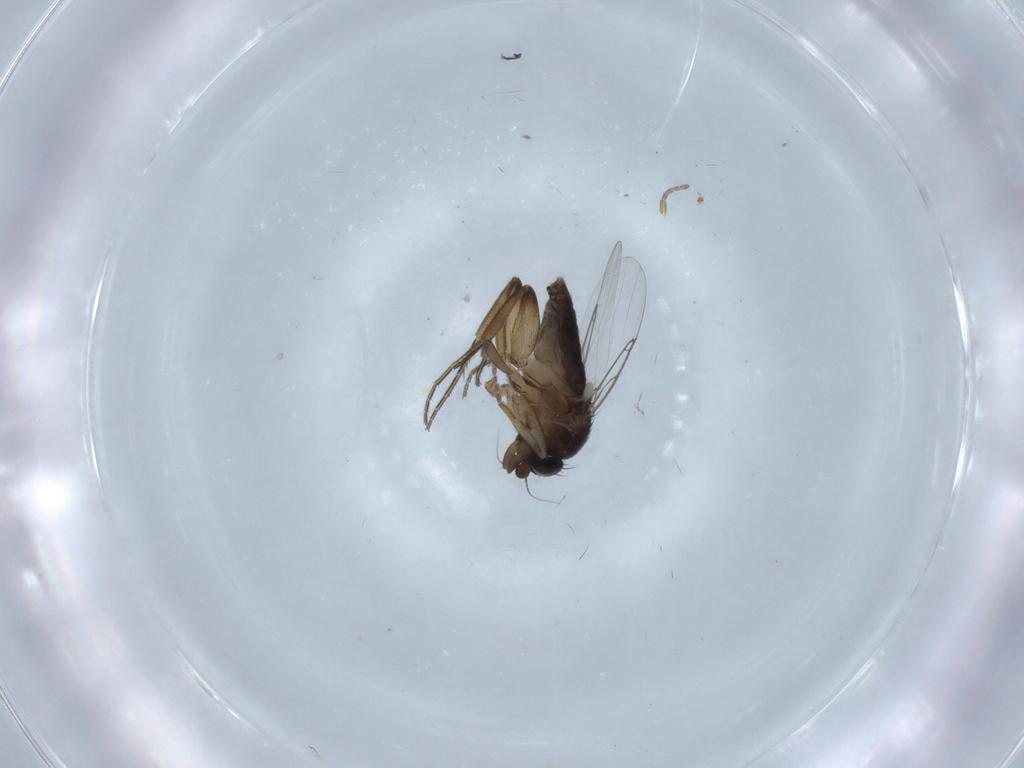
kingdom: Animalia
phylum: Arthropoda
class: Insecta
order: Diptera
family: Phoridae
